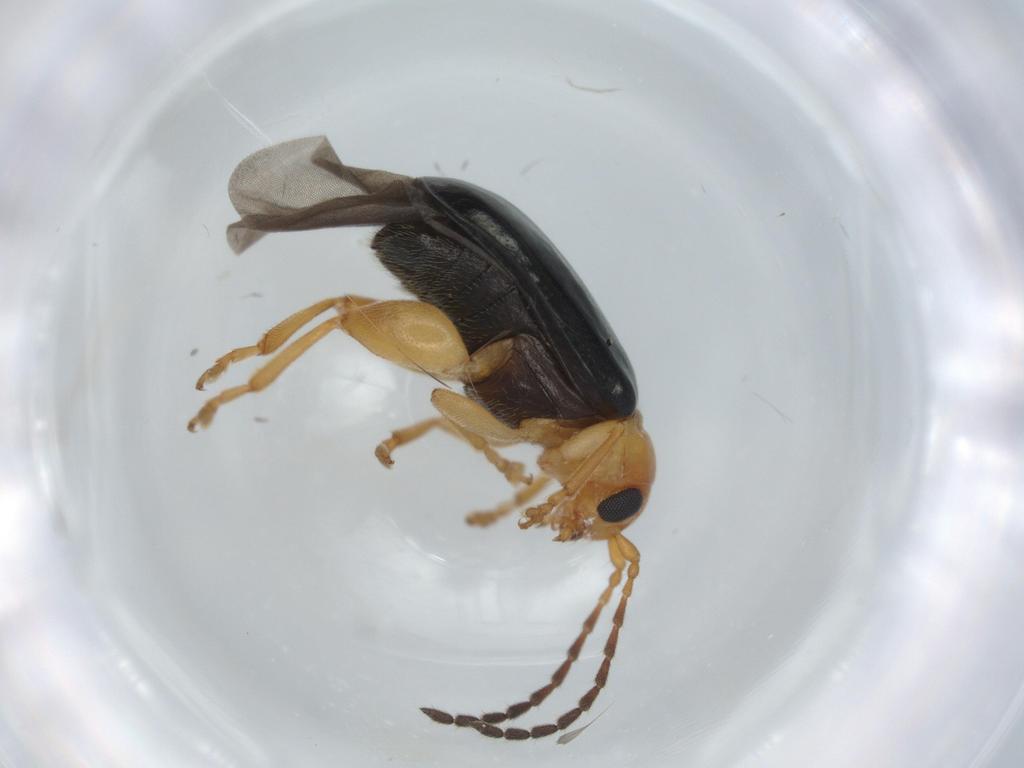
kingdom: Animalia
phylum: Arthropoda
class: Insecta
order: Coleoptera
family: Chrysomelidae
